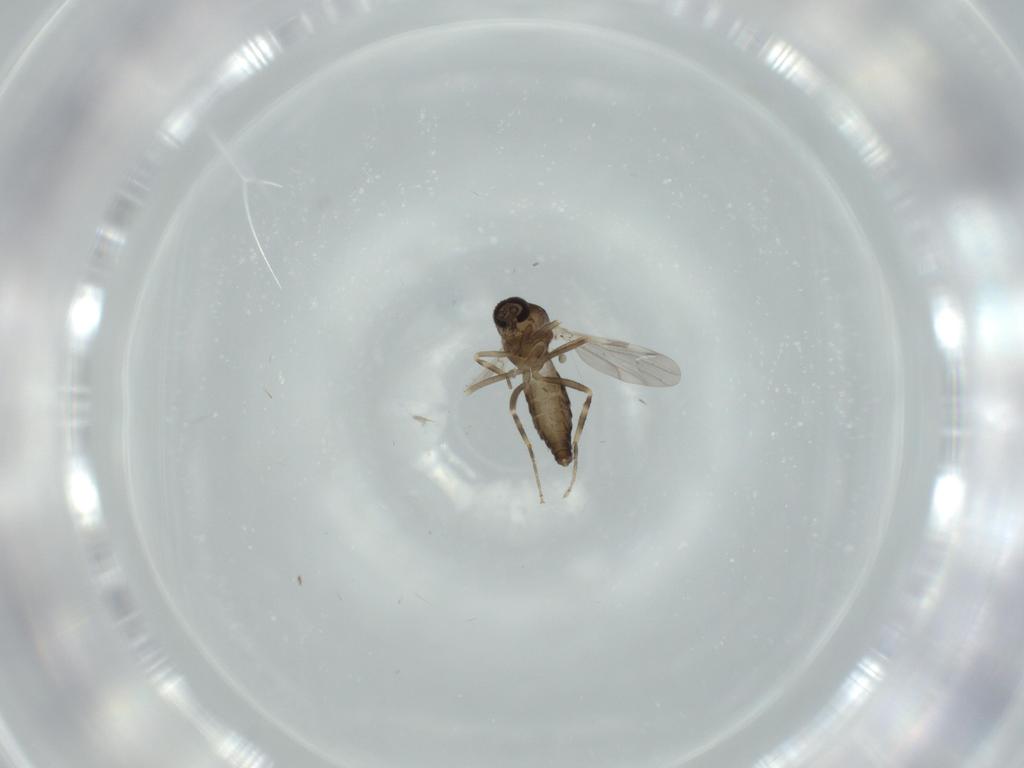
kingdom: Animalia
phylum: Arthropoda
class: Insecta
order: Diptera
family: Ceratopogonidae
